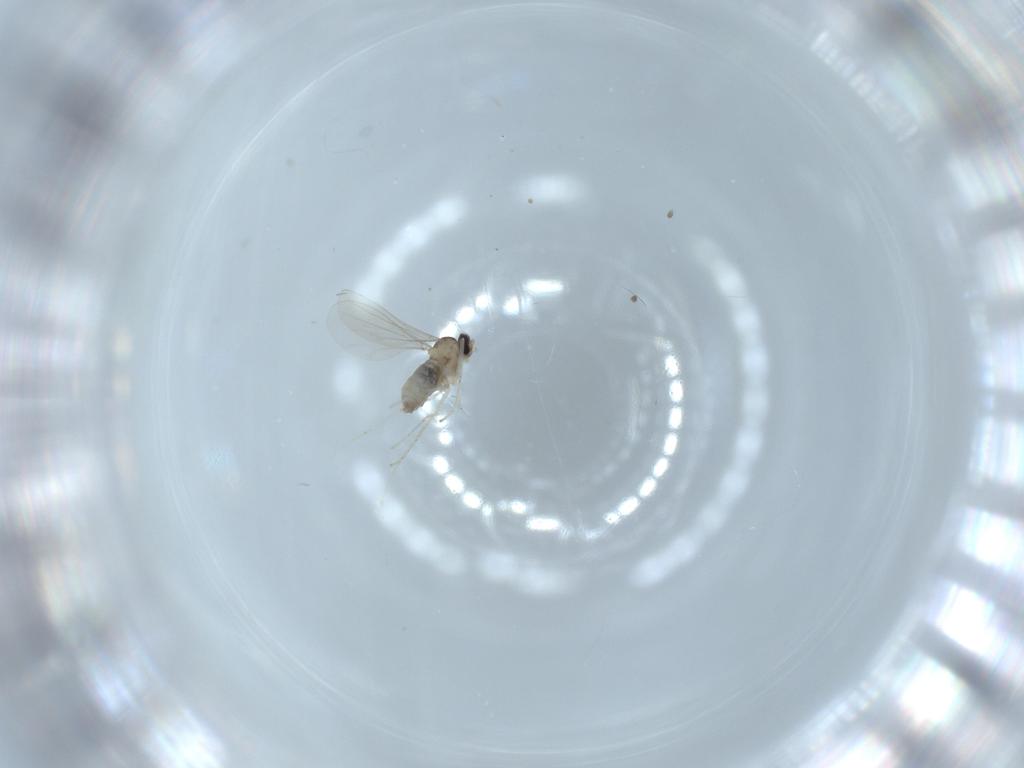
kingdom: Animalia
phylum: Arthropoda
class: Insecta
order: Diptera
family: Cecidomyiidae
